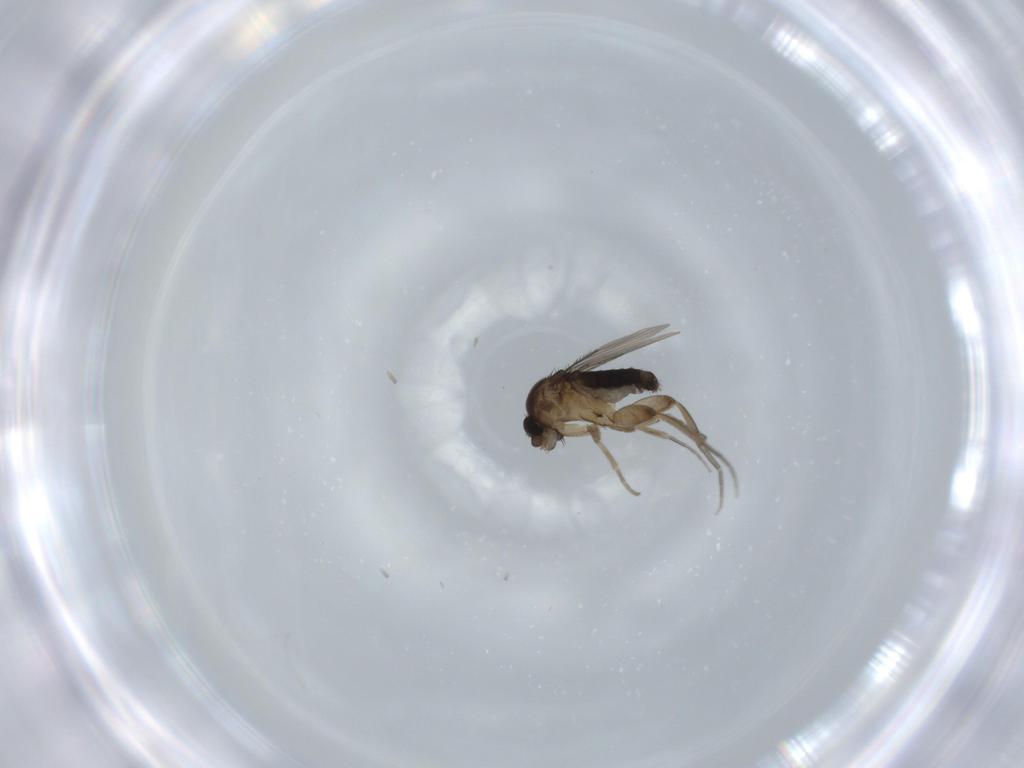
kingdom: Animalia
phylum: Arthropoda
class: Insecta
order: Diptera
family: Phoridae
